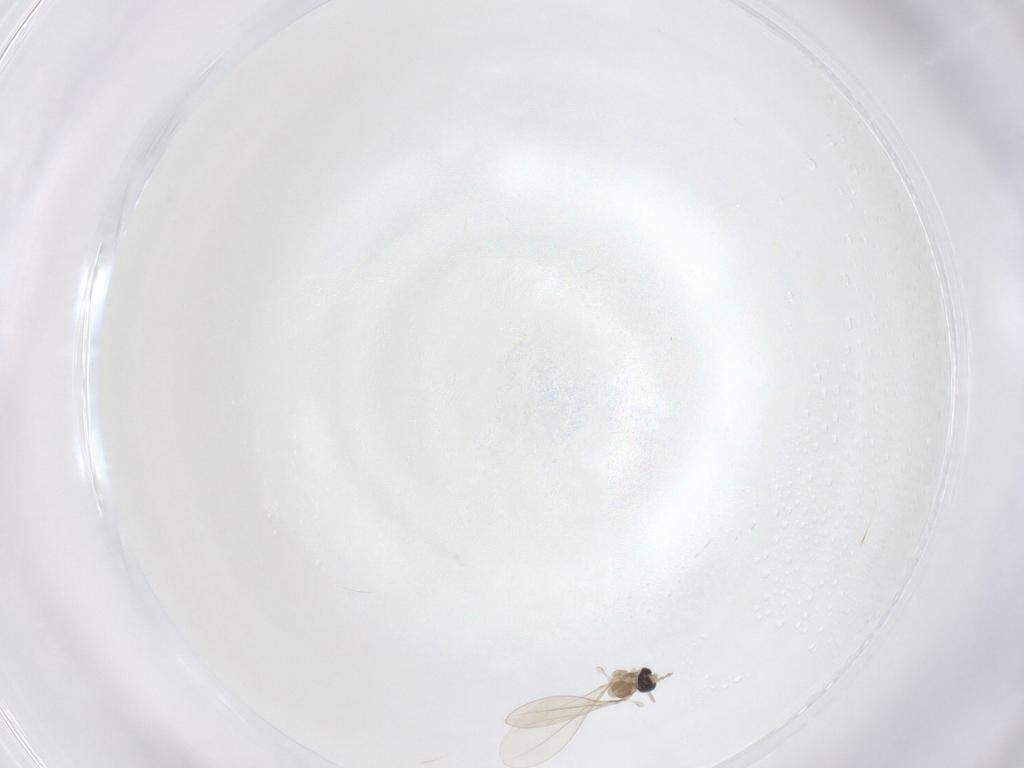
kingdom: Animalia
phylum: Arthropoda
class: Insecta
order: Diptera
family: Cecidomyiidae
